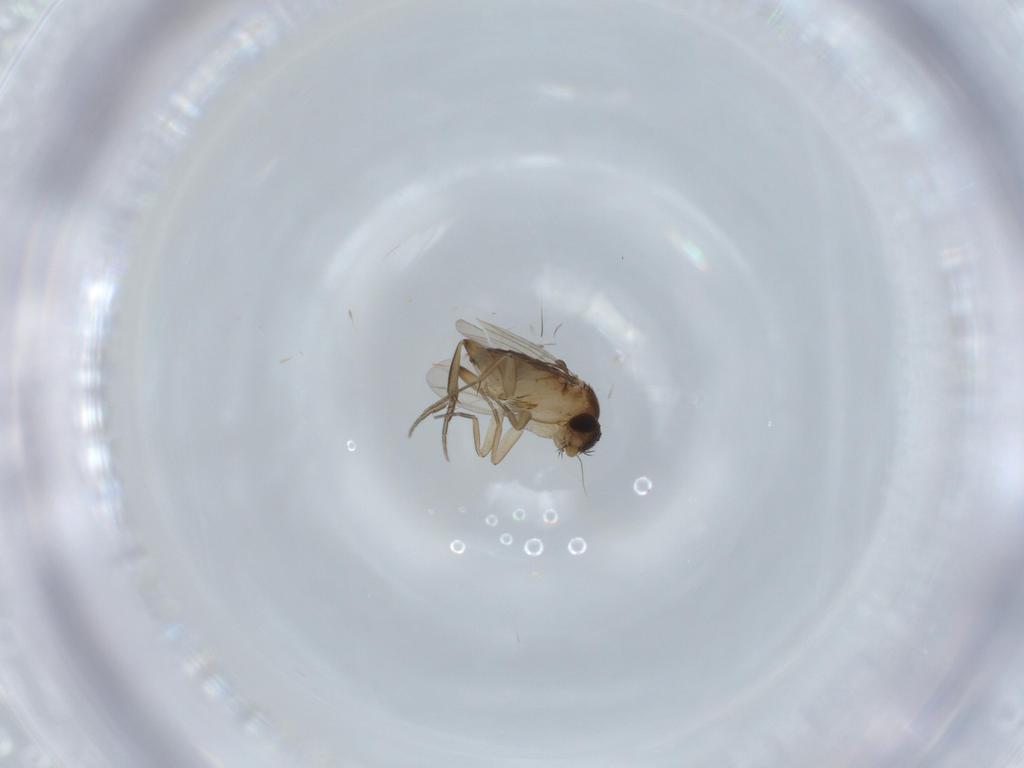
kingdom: Animalia
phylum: Arthropoda
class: Insecta
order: Diptera
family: Phoridae
